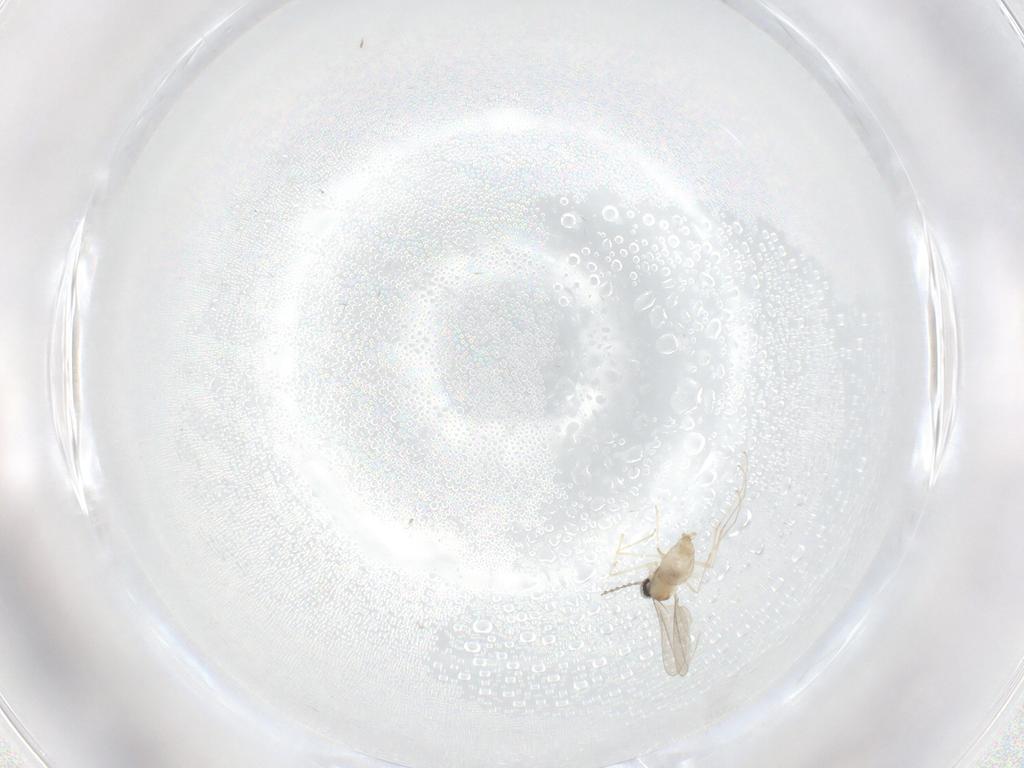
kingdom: Animalia
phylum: Arthropoda
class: Insecta
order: Diptera
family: Cecidomyiidae
